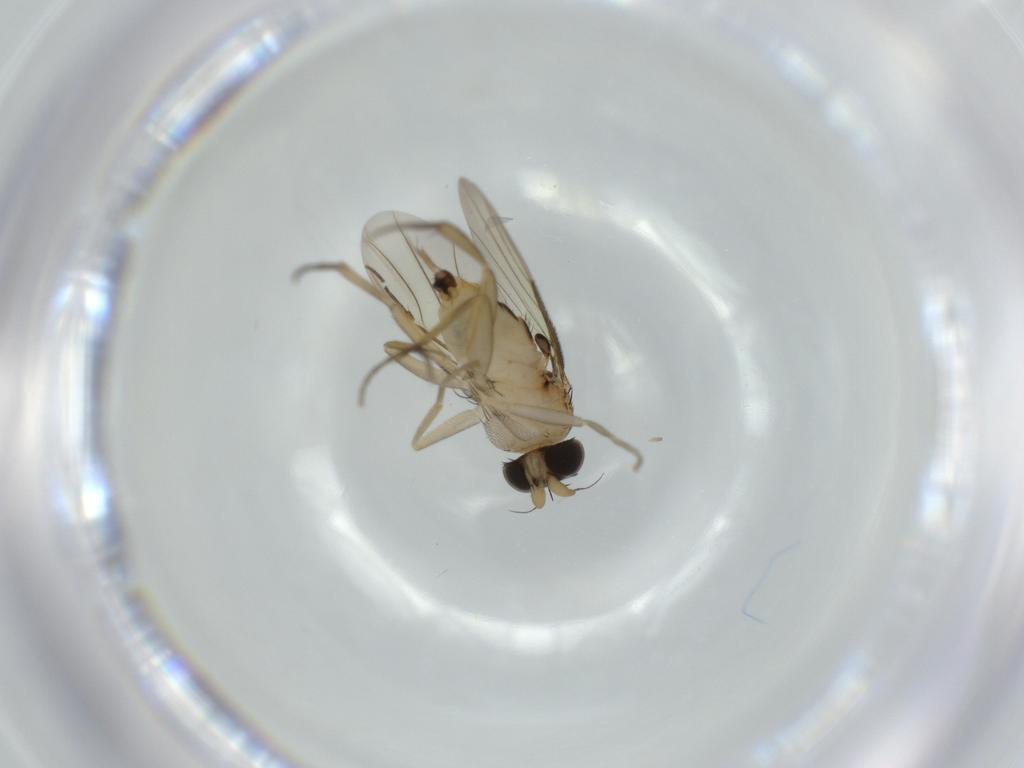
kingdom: Animalia
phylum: Arthropoda
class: Insecta
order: Diptera
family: Phoridae
